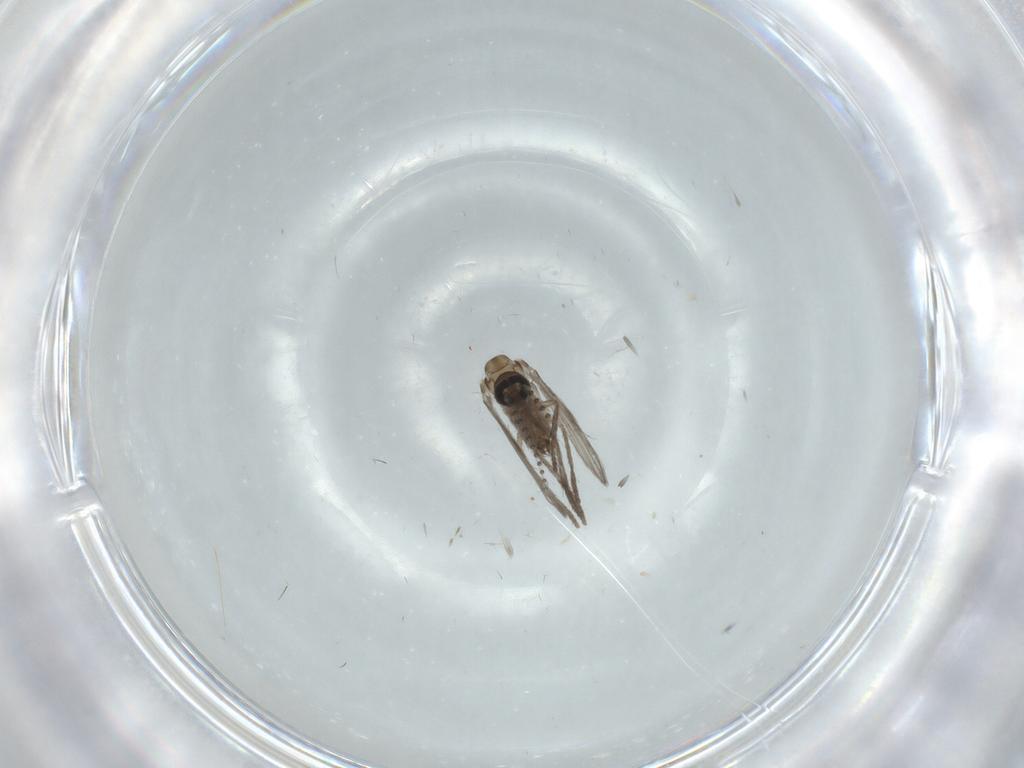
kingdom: Animalia
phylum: Arthropoda
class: Insecta
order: Diptera
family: Psychodidae
